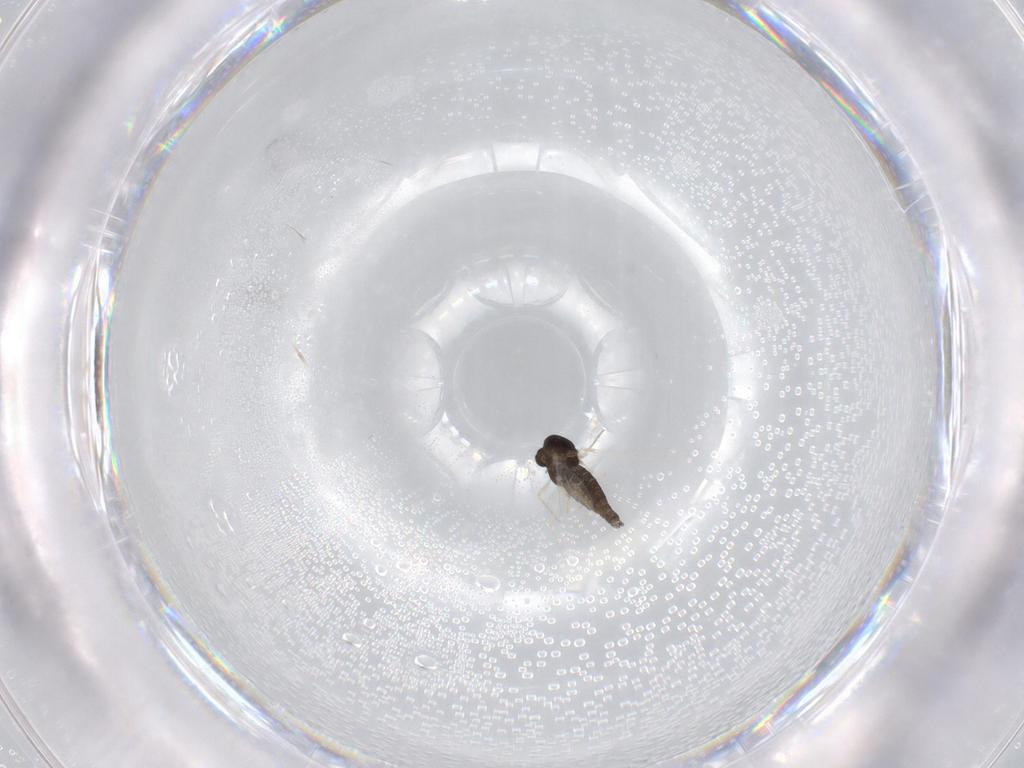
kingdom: Animalia
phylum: Arthropoda
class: Insecta
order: Diptera
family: Chironomidae
